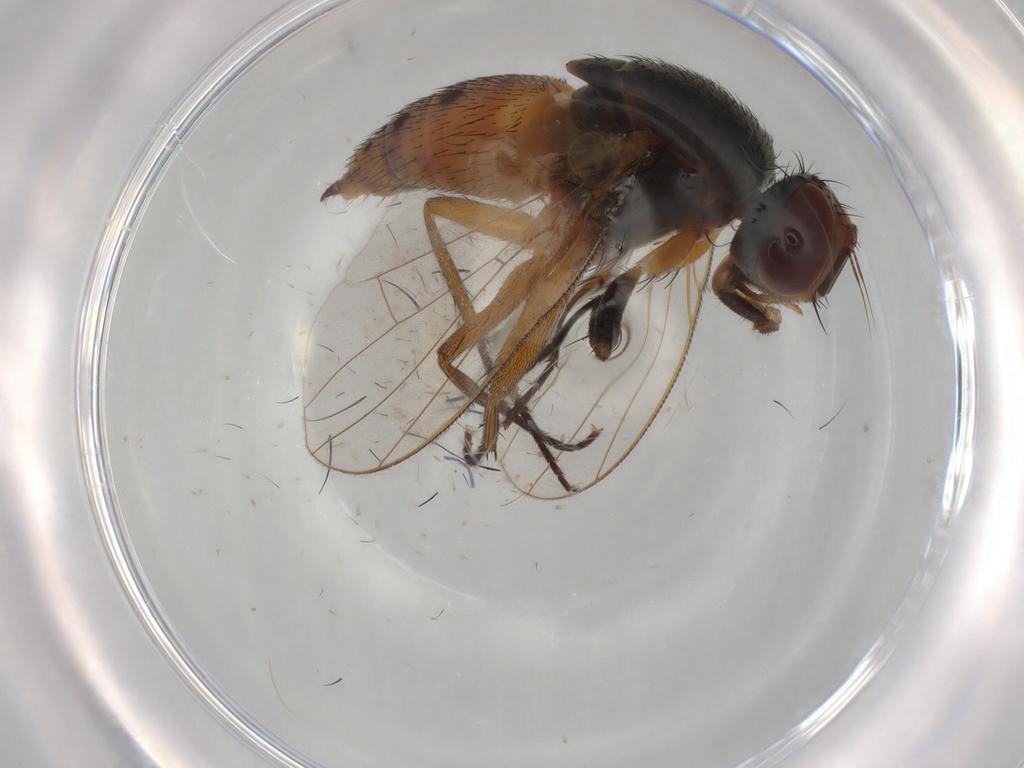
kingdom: Animalia
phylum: Arthropoda
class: Insecta
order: Diptera
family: Muscidae
